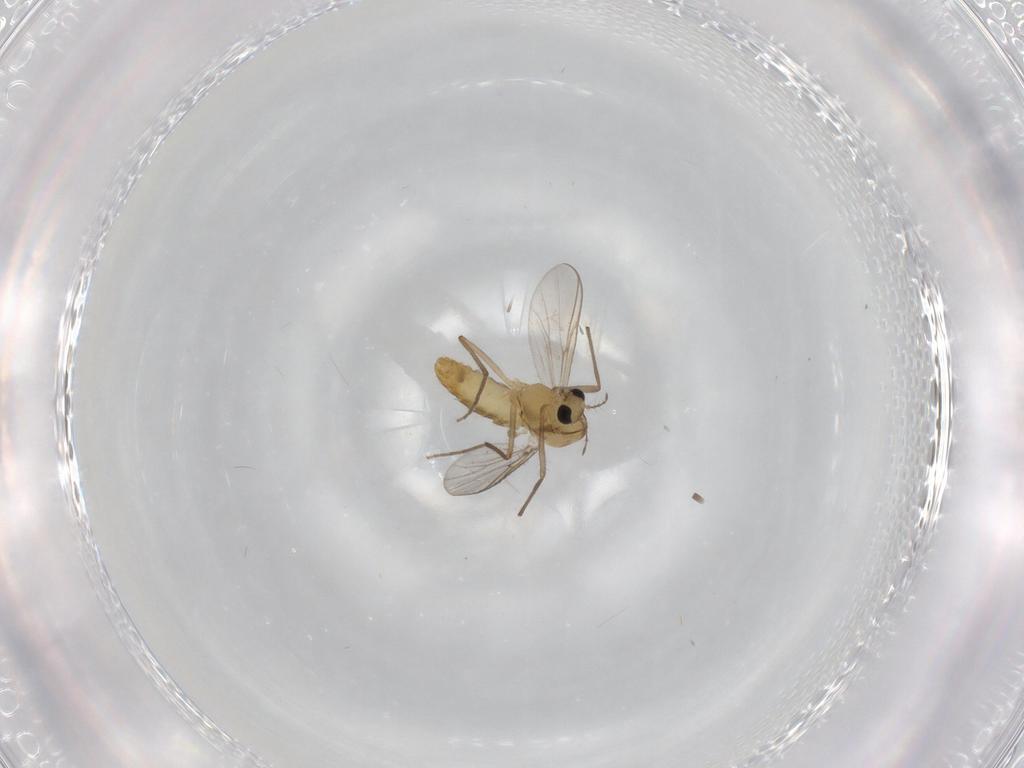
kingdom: Animalia
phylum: Arthropoda
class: Insecta
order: Diptera
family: Chironomidae
